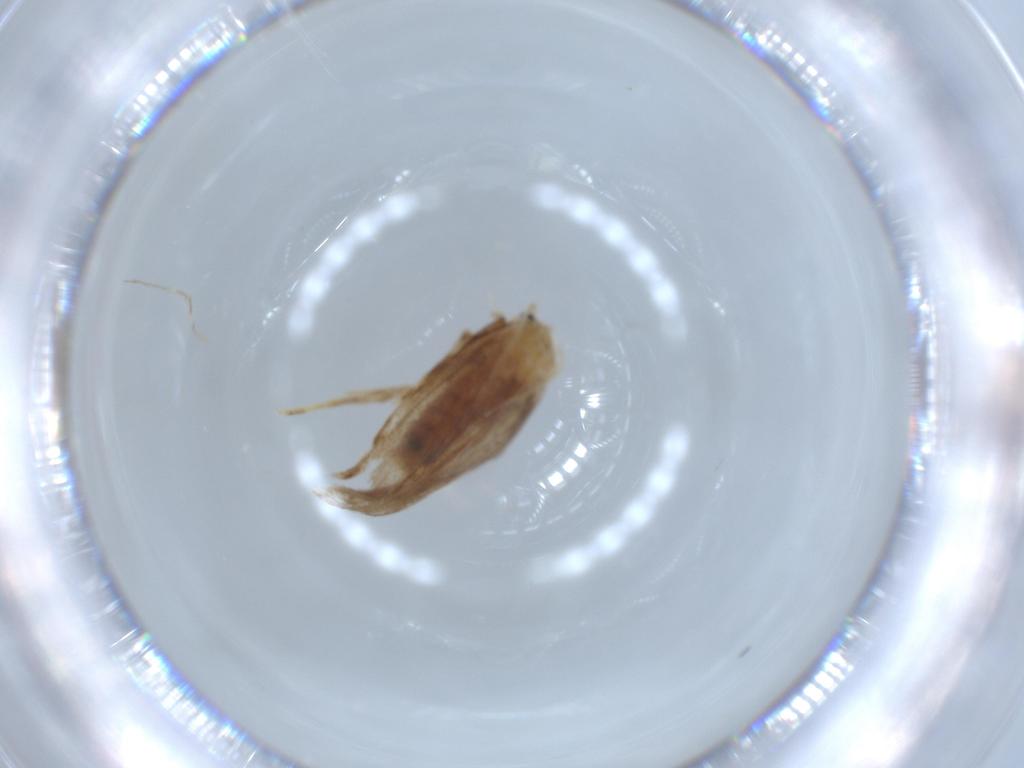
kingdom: Animalia
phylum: Arthropoda
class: Insecta
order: Lepidoptera
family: Dryadaulidae
